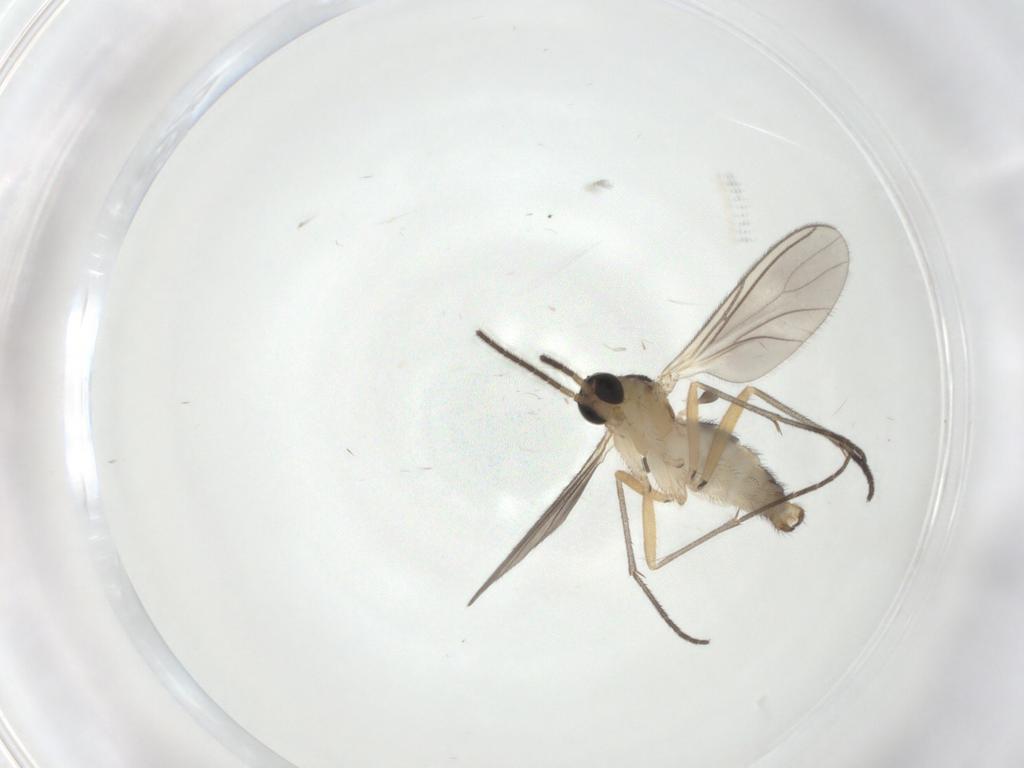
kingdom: Animalia
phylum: Arthropoda
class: Insecta
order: Diptera
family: Sciaridae
